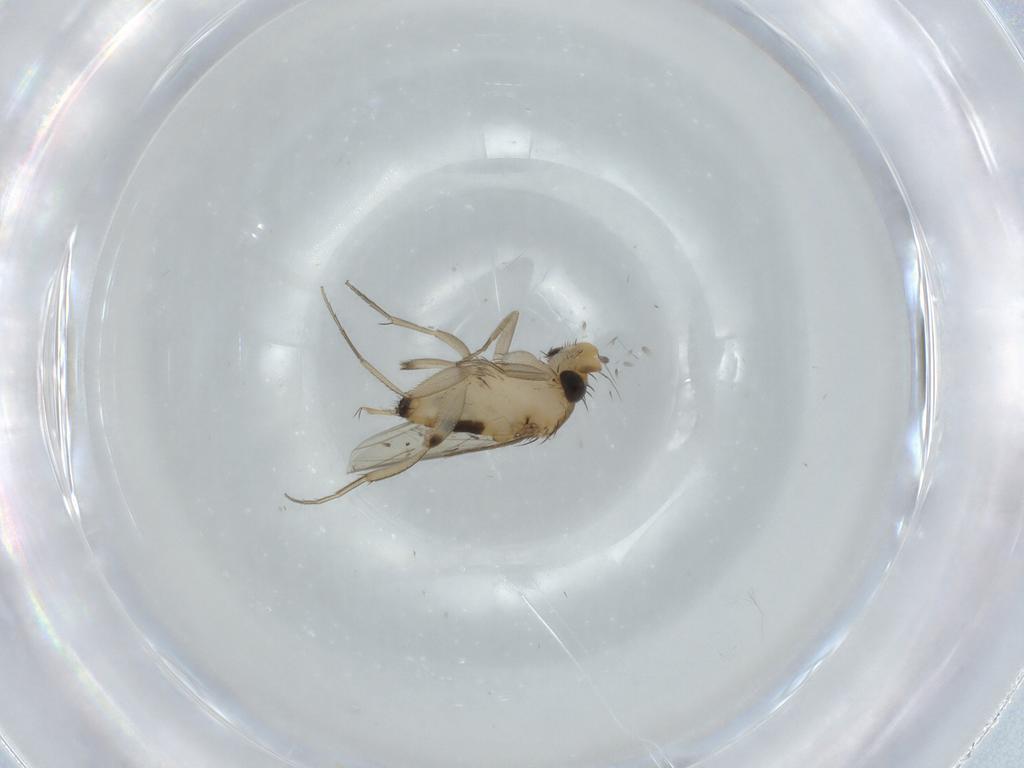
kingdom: Animalia
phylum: Arthropoda
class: Insecta
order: Diptera
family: Phoridae
